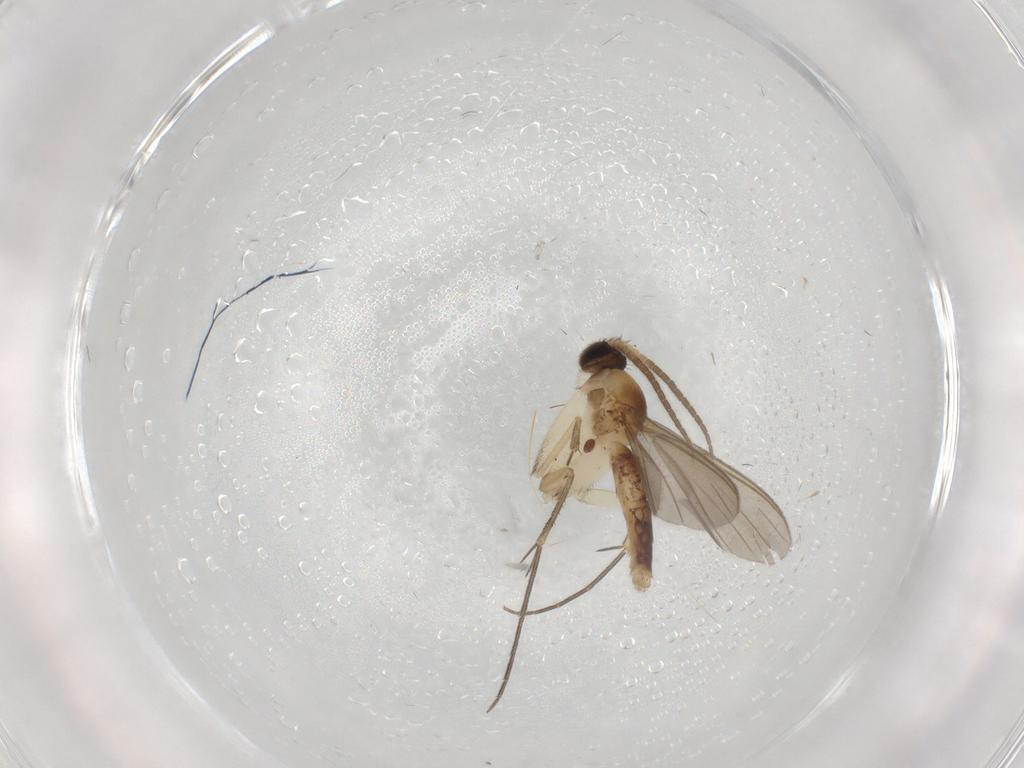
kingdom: Animalia
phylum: Arthropoda
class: Insecta
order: Diptera
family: Mycetophilidae
